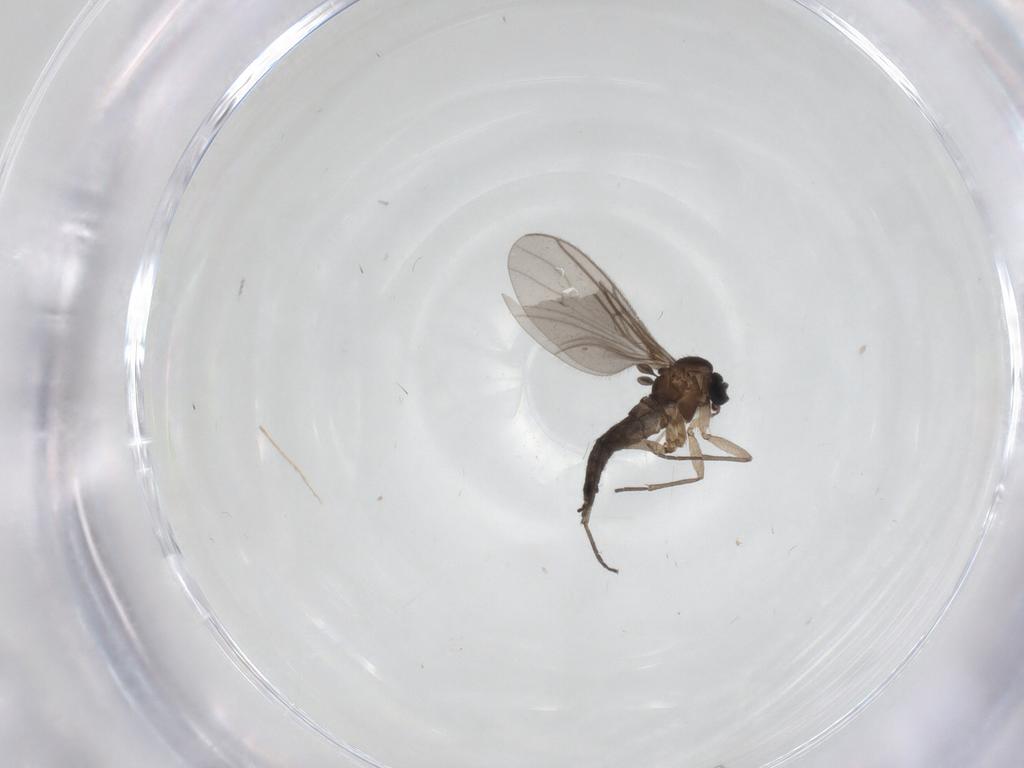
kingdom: Animalia
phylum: Arthropoda
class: Insecta
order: Diptera
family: Sciaridae
